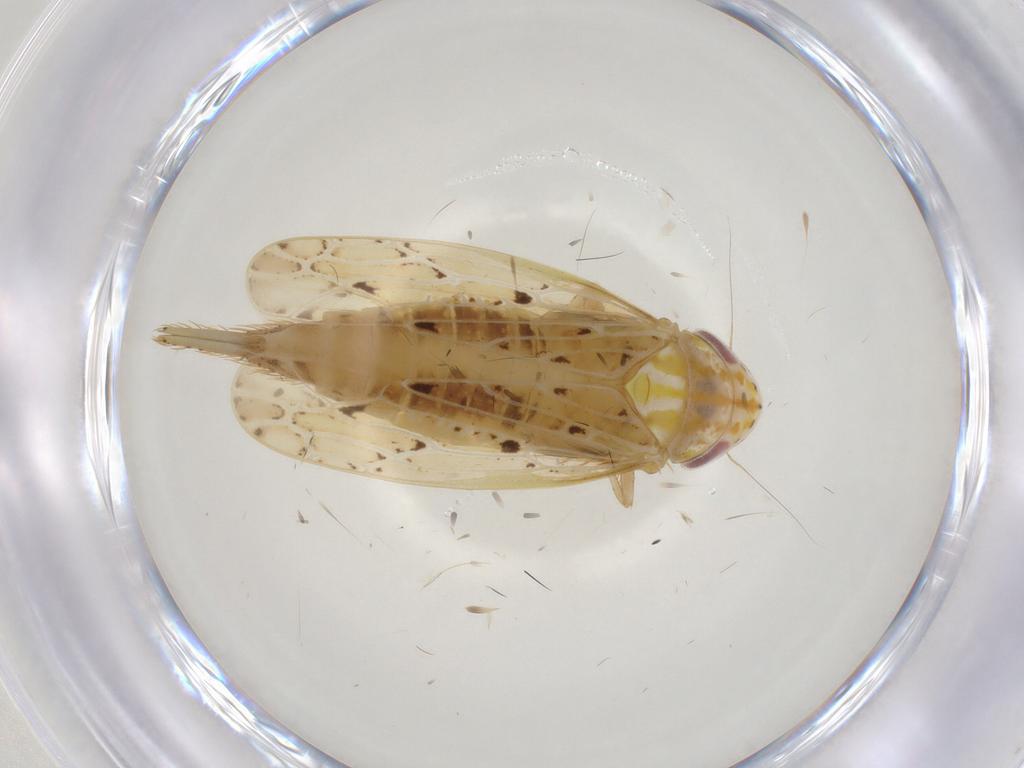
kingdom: Animalia
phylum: Arthropoda
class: Insecta
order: Hemiptera
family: Cicadellidae
